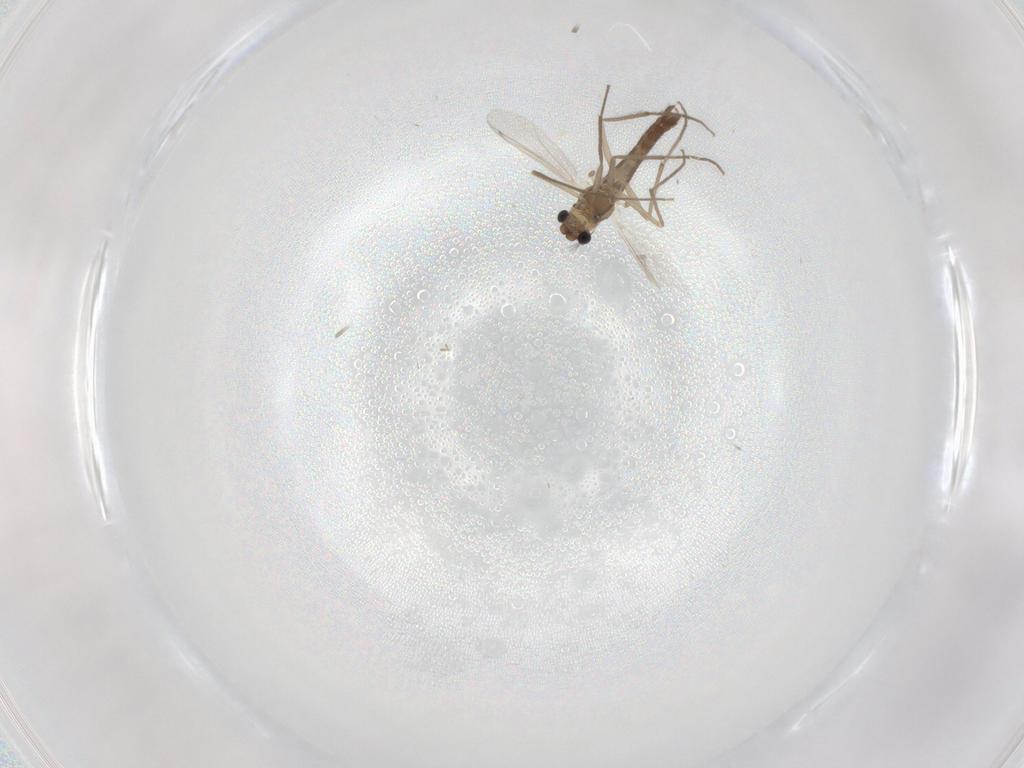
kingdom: Animalia
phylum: Arthropoda
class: Insecta
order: Diptera
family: Chironomidae
